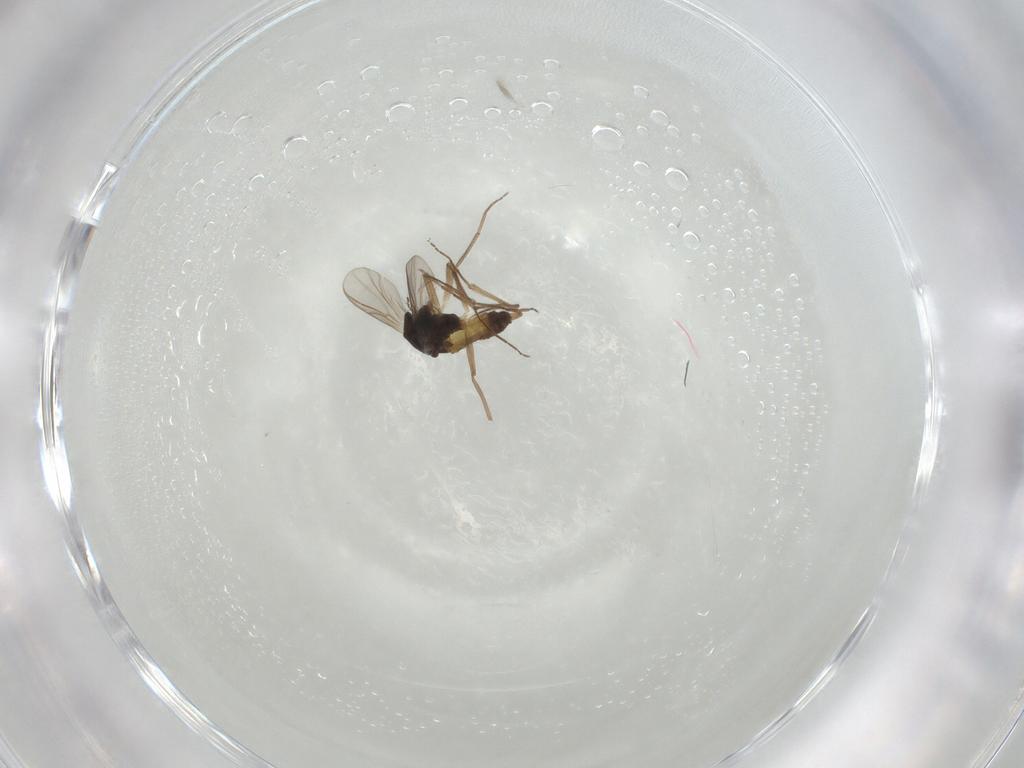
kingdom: Animalia
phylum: Arthropoda
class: Insecta
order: Diptera
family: Chironomidae
